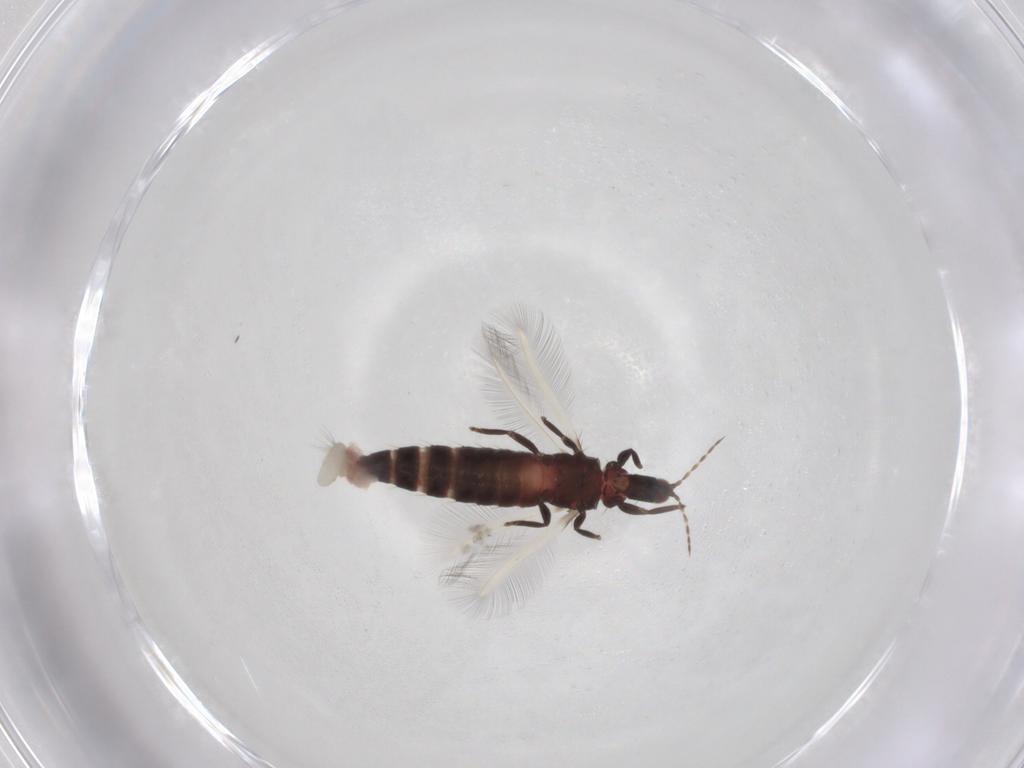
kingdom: Animalia
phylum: Arthropoda
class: Insecta
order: Thysanoptera
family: Phlaeothripidae
